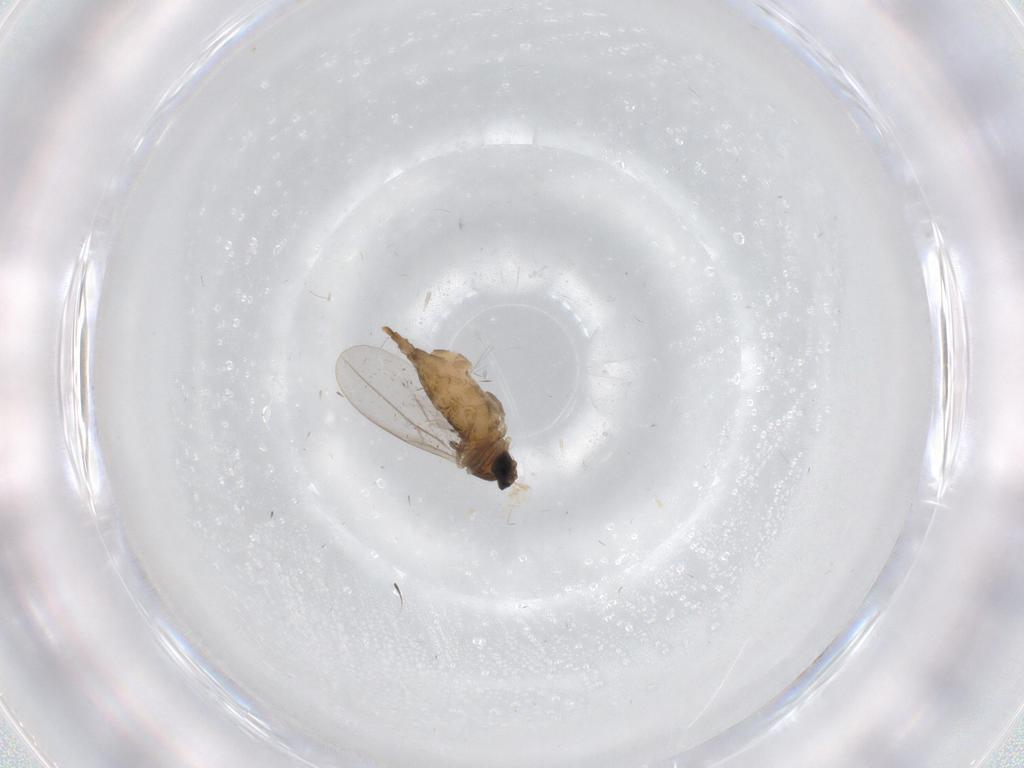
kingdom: Animalia
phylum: Arthropoda
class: Insecta
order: Diptera
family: Cecidomyiidae
